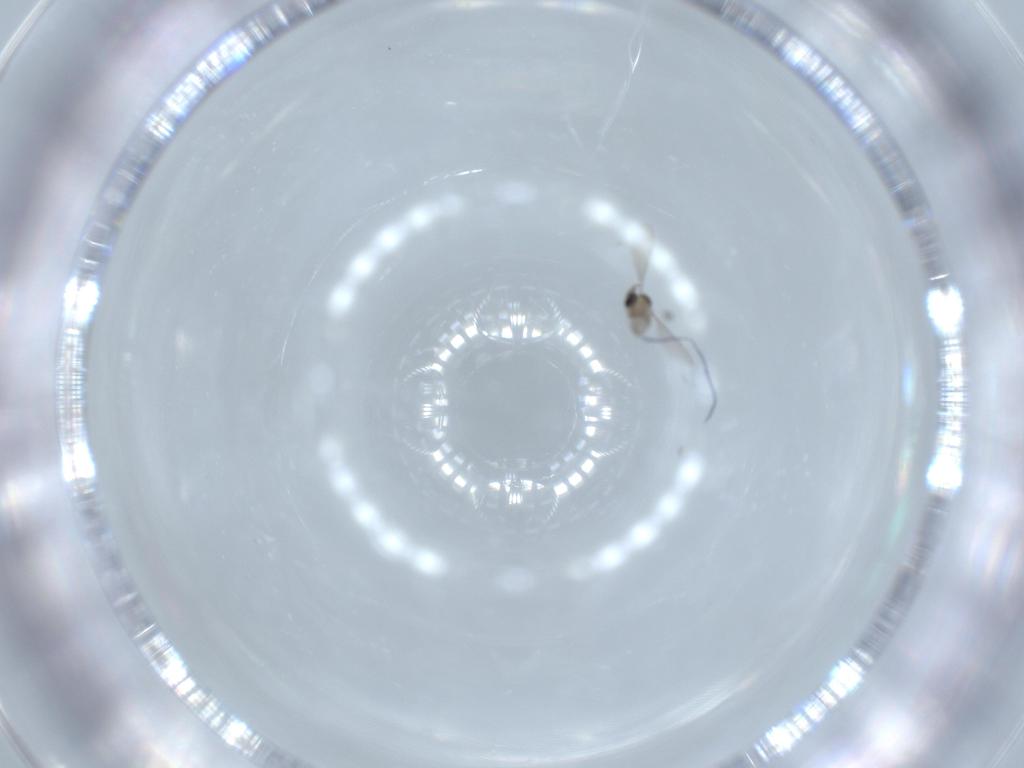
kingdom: Animalia
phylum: Arthropoda
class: Insecta
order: Diptera
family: Cecidomyiidae
